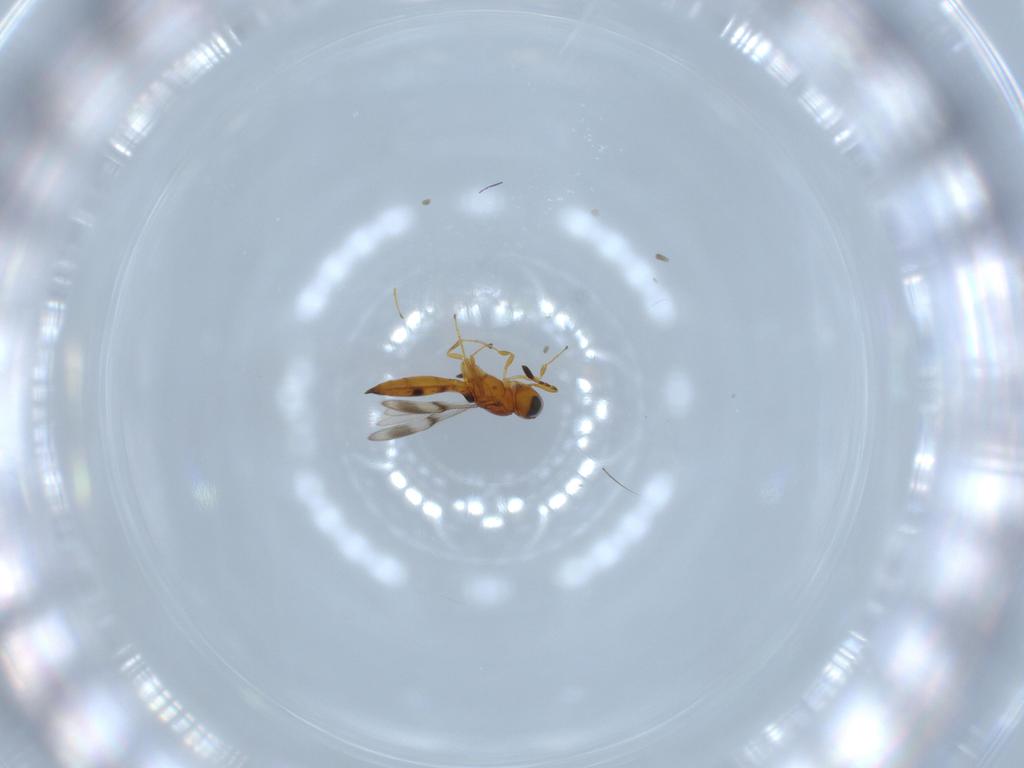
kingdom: Animalia
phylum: Arthropoda
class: Insecta
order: Hymenoptera
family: Scelionidae
